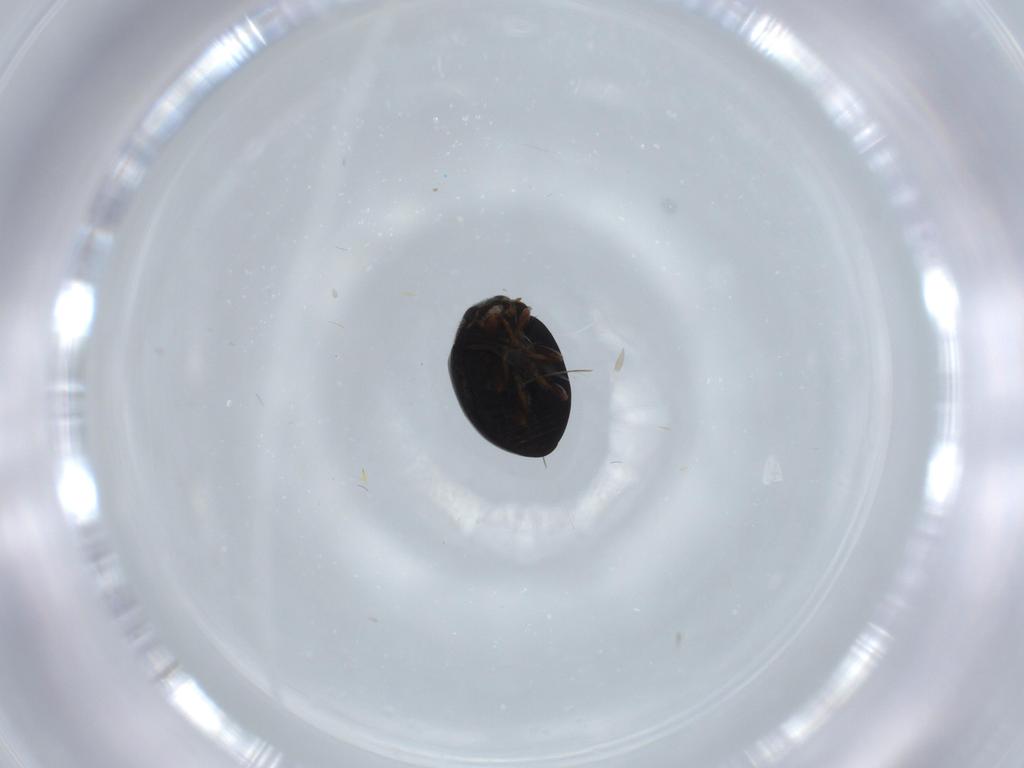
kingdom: Animalia
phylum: Arthropoda
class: Insecta
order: Coleoptera
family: Coccinellidae
